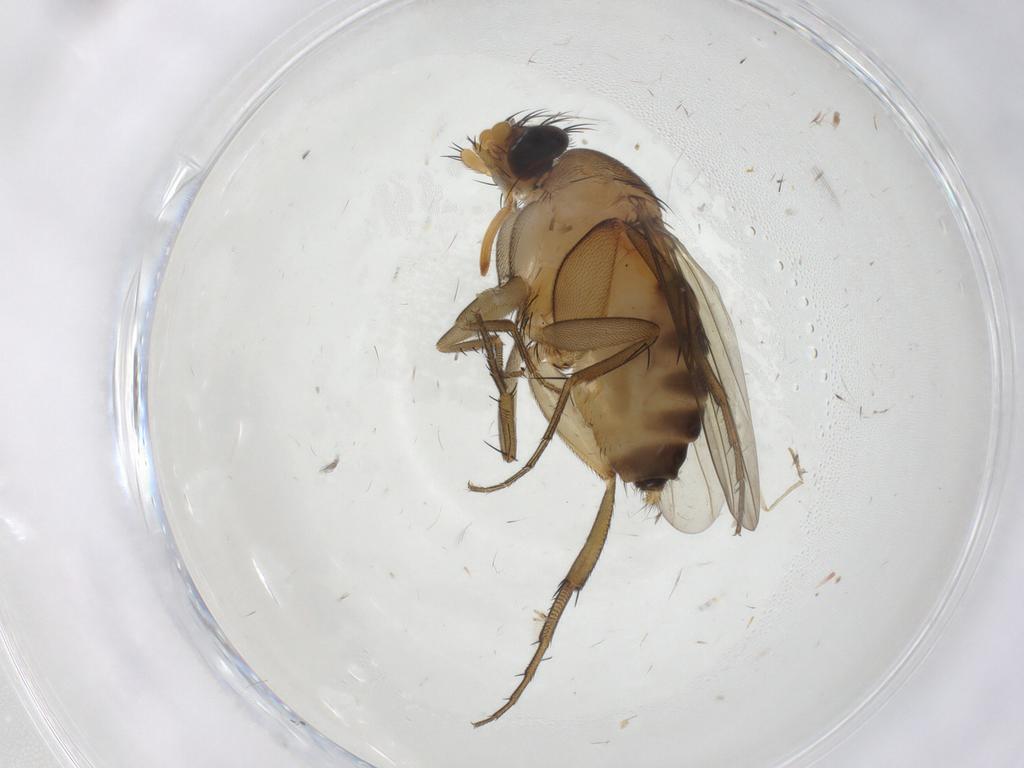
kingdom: Animalia
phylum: Arthropoda
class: Insecta
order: Diptera
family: Phoridae
